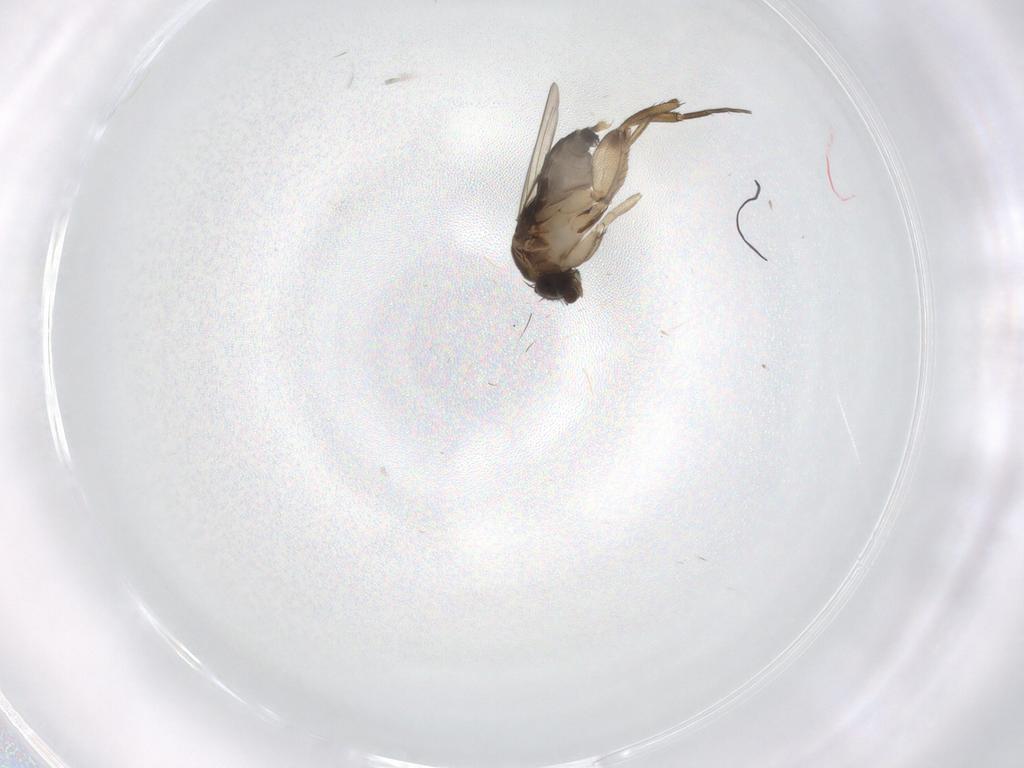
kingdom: Animalia
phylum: Arthropoda
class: Insecta
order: Diptera
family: Phoridae
